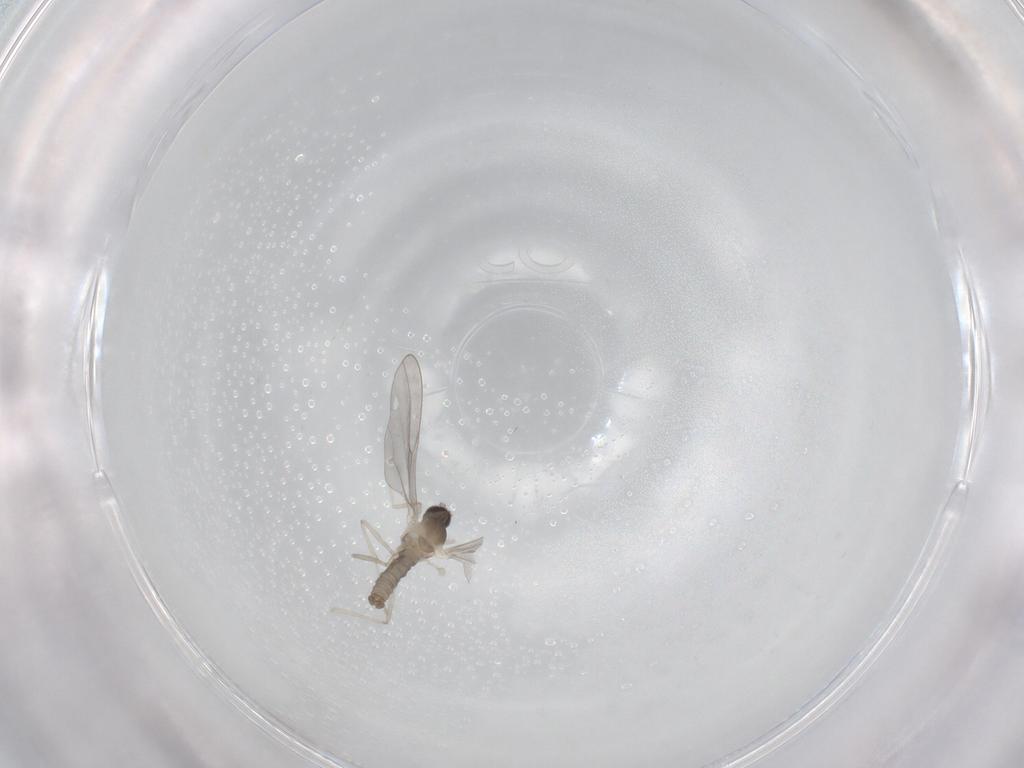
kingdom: Animalia
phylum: Arthropoda
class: Insecta
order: Diptera
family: Cecidomyiidae
